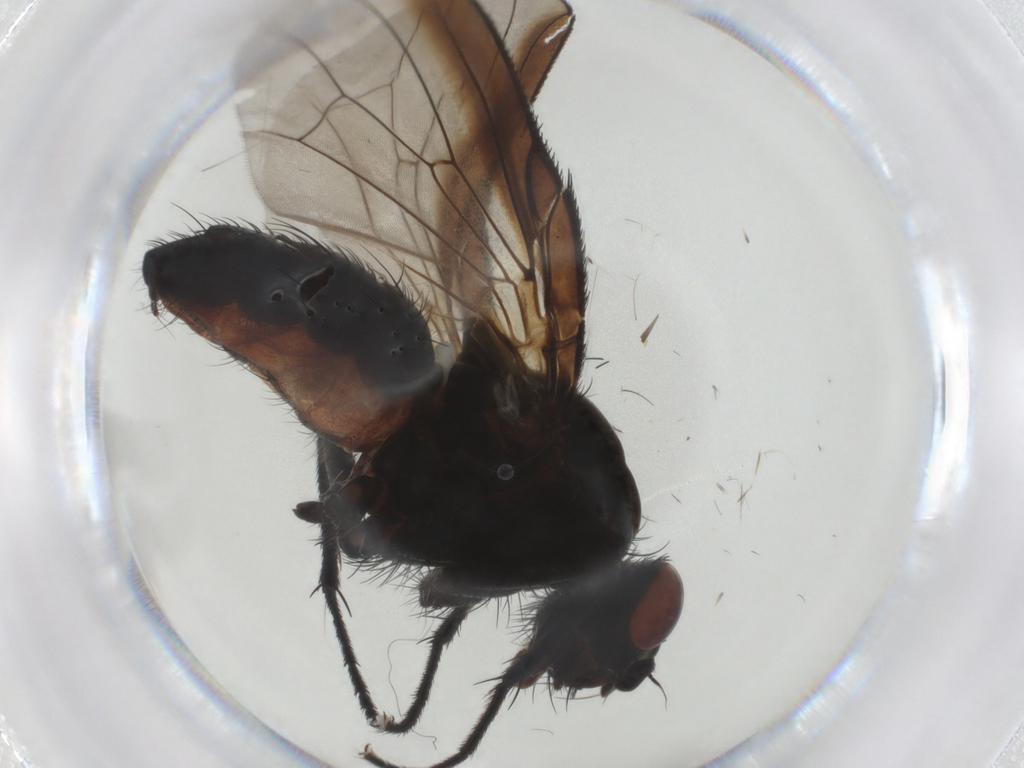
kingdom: Animalia
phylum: Arthropoda
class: Insecta
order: Diptera
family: Anthomyiidae
